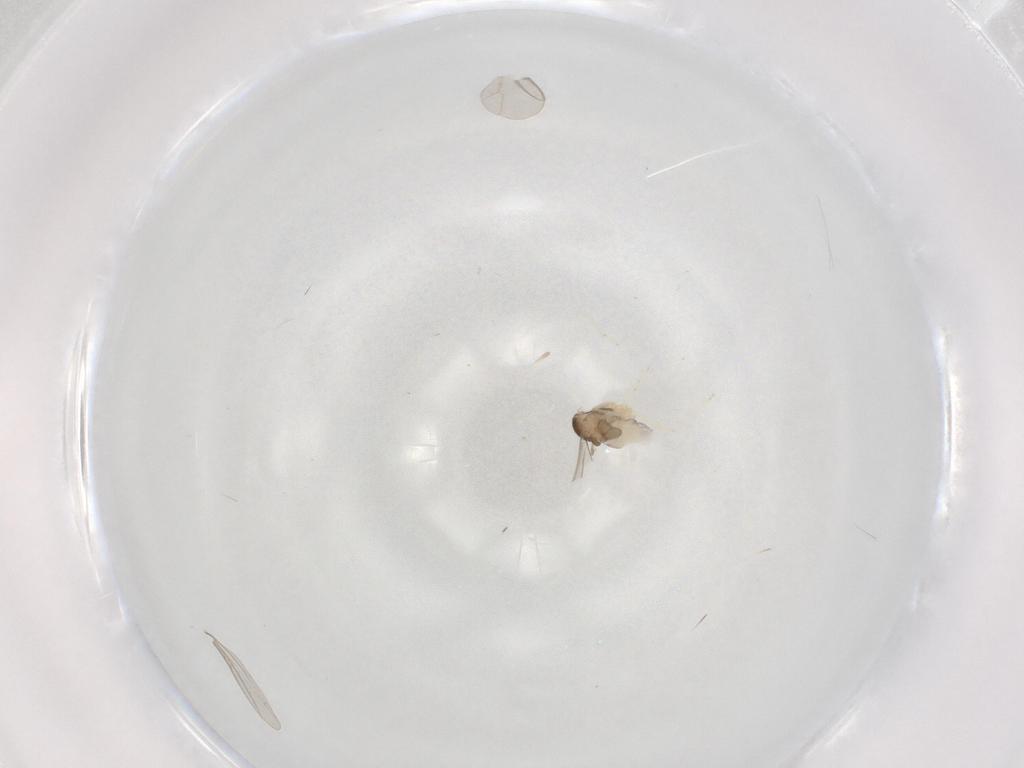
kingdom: Animalia
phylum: Arthropoda
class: Insecta
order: Diptera
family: Cecidomyiidae
